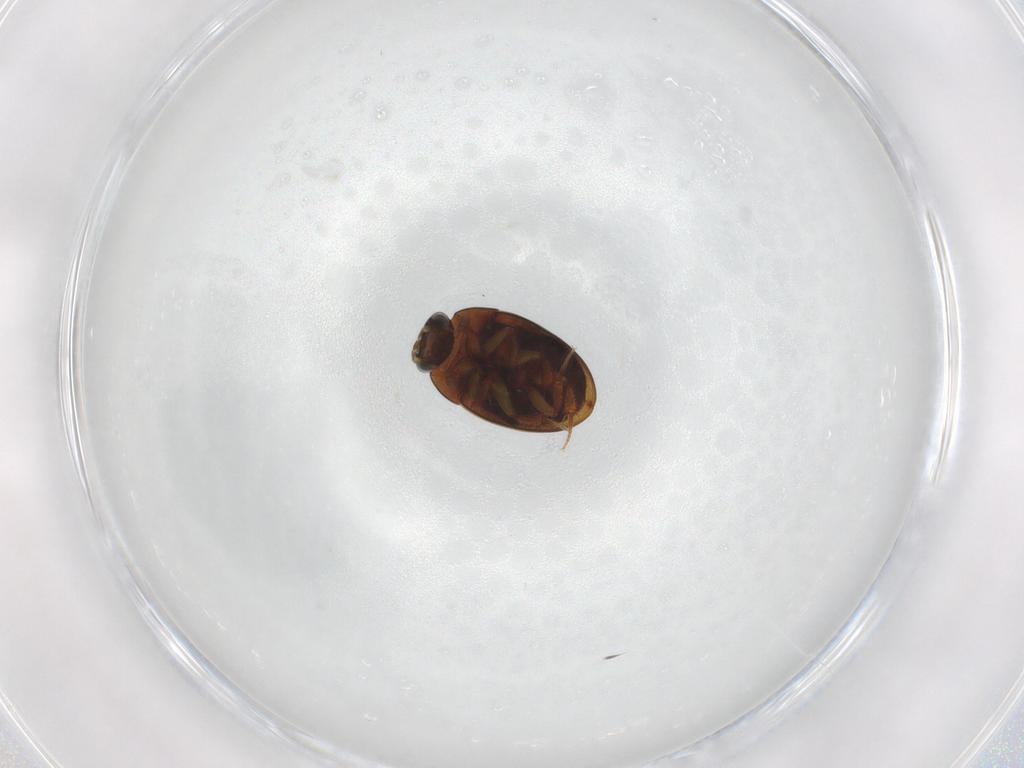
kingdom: Animalia
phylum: Arthropoda
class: Insecta
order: Coleoptera
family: Hydrophilidae
